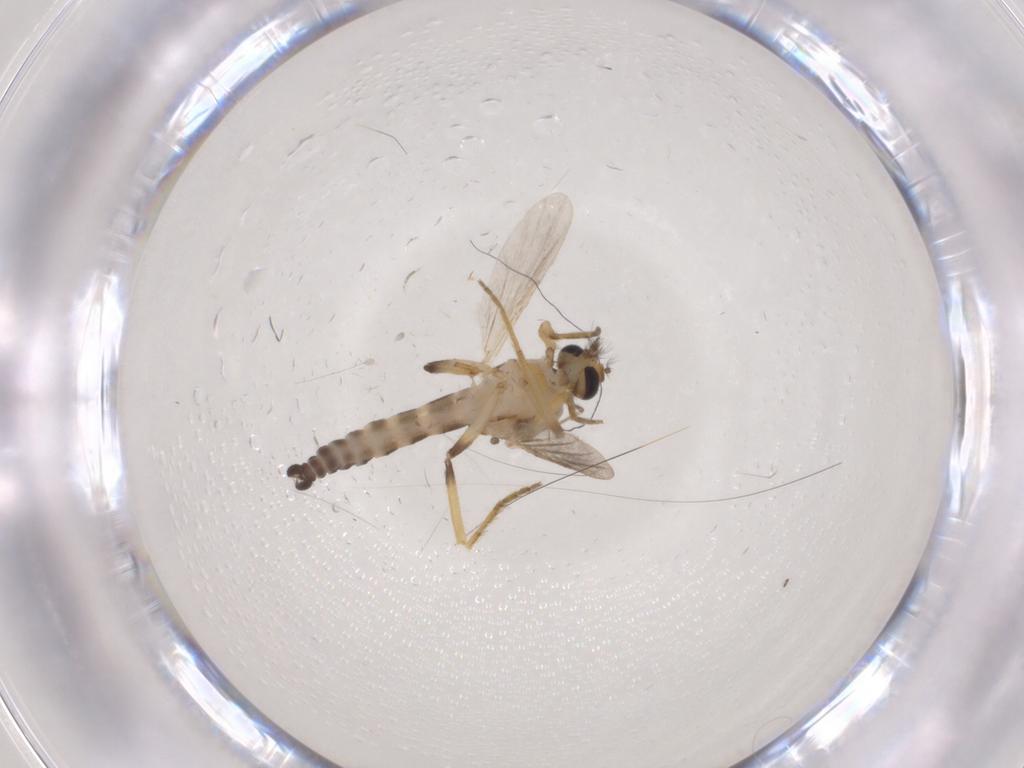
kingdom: Animalia
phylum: Arthropoda
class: Insecta
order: Diptera
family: Ceratopogonidae
